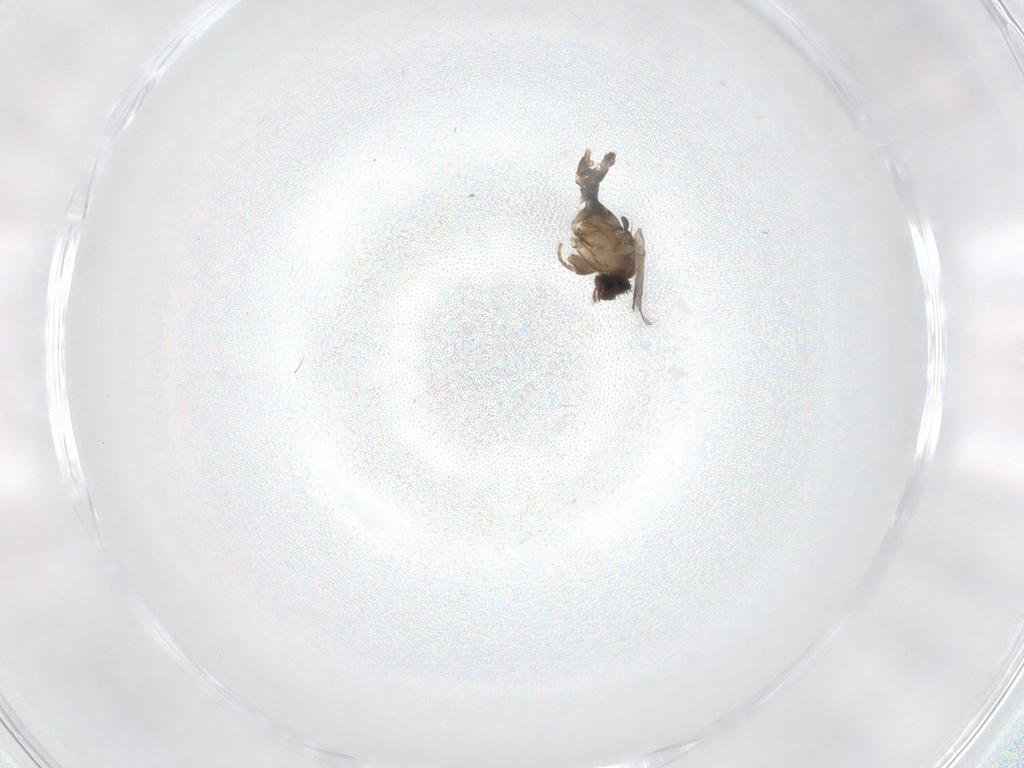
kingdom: Animalia
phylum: Arthropoda
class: Insecta
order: Diptera
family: Phoridae
